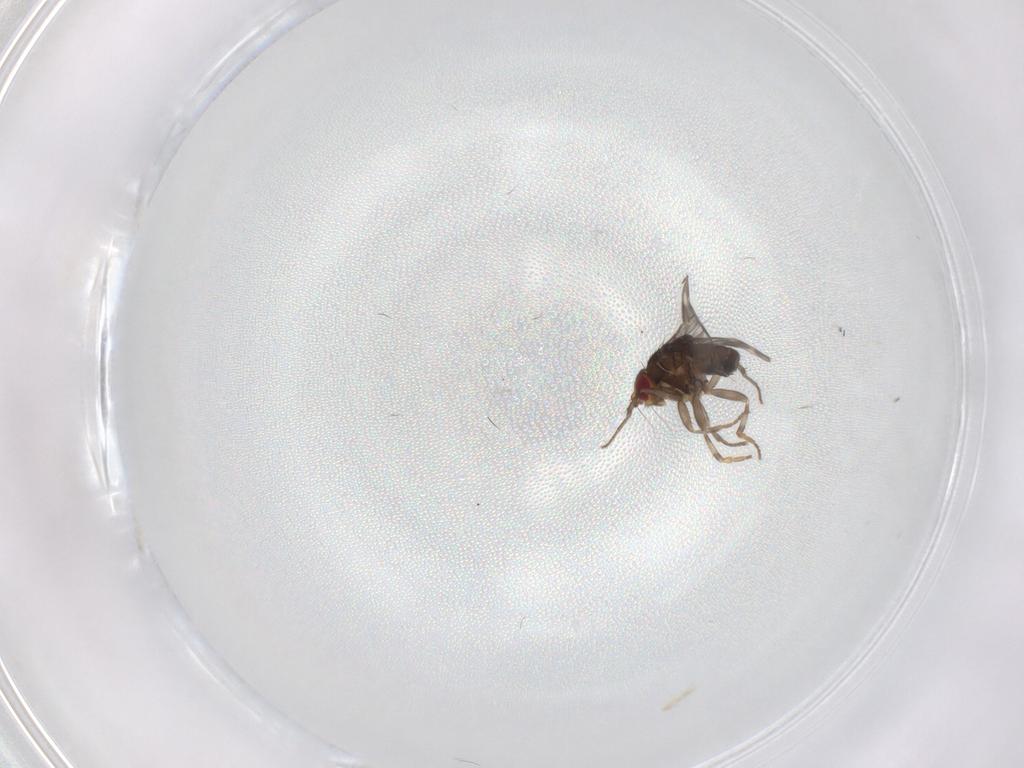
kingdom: Animalia
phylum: Arthropoda
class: Insecta
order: Diptera
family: Sphaeroceridae
